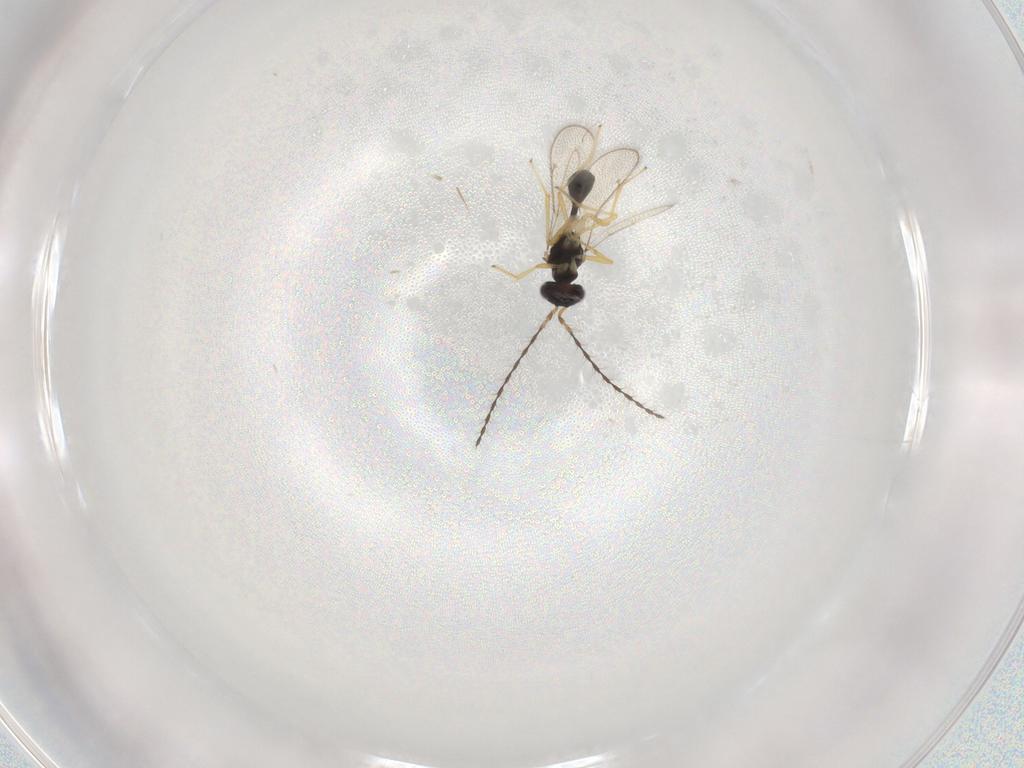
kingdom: Animalia
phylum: Arthropoda
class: Insecta
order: Hymenoptera
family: Diparidae
